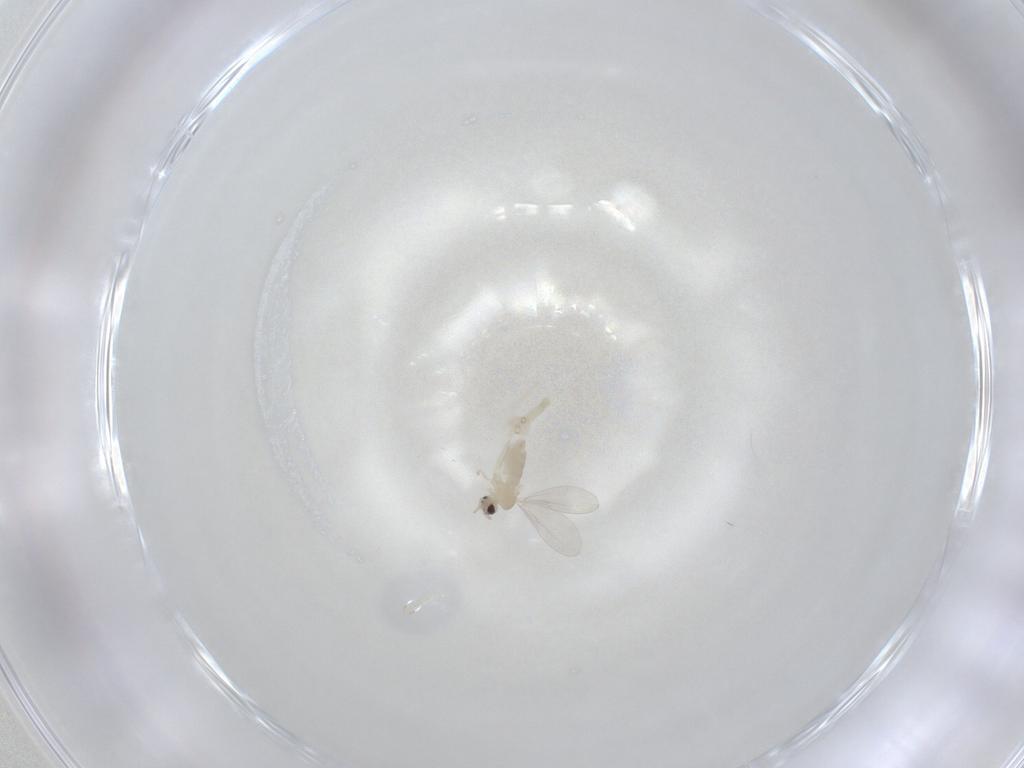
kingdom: Animalia
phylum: Arthropoda
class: Insecta
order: Diptera
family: Cecidomyiidae
